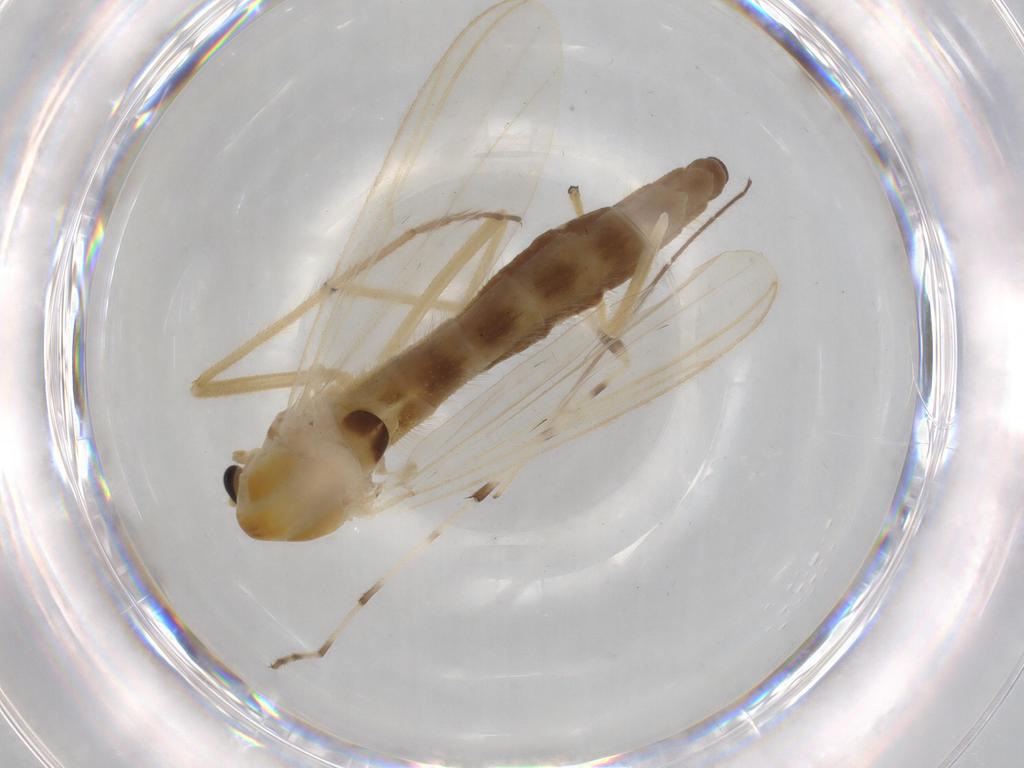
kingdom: Animalia
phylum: Arthropoda
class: Insecta
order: Diptera
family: Chironomidae
